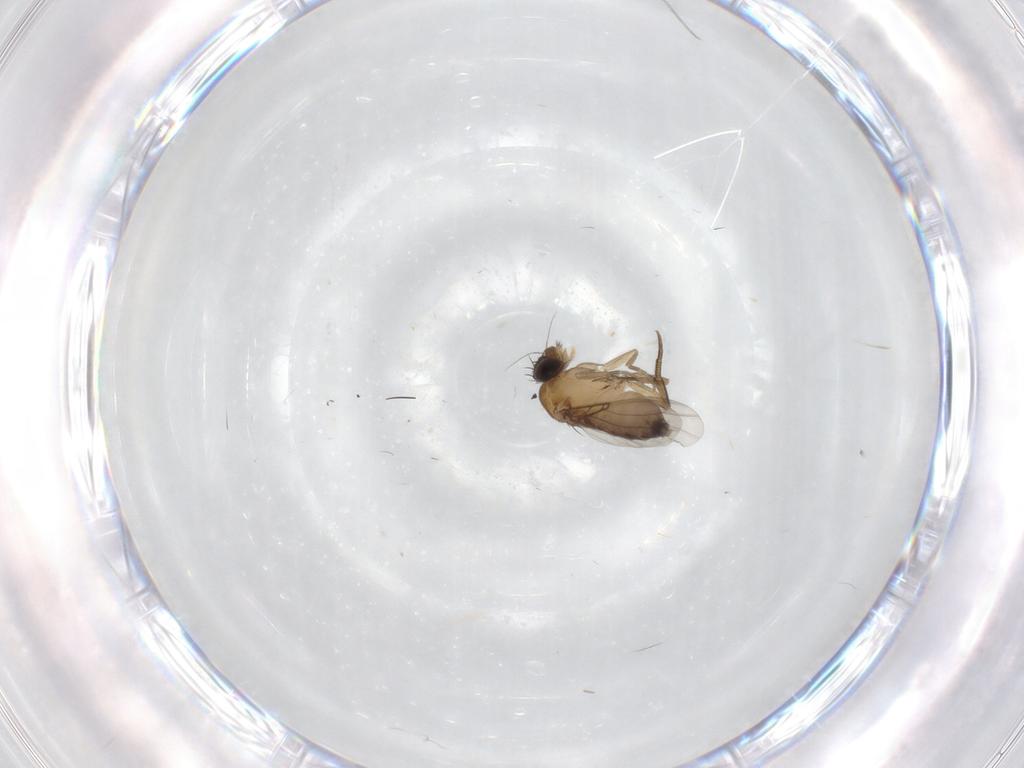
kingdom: Animalia
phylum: Arthropoda
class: Insecta
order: Diptera
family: Phoridae
